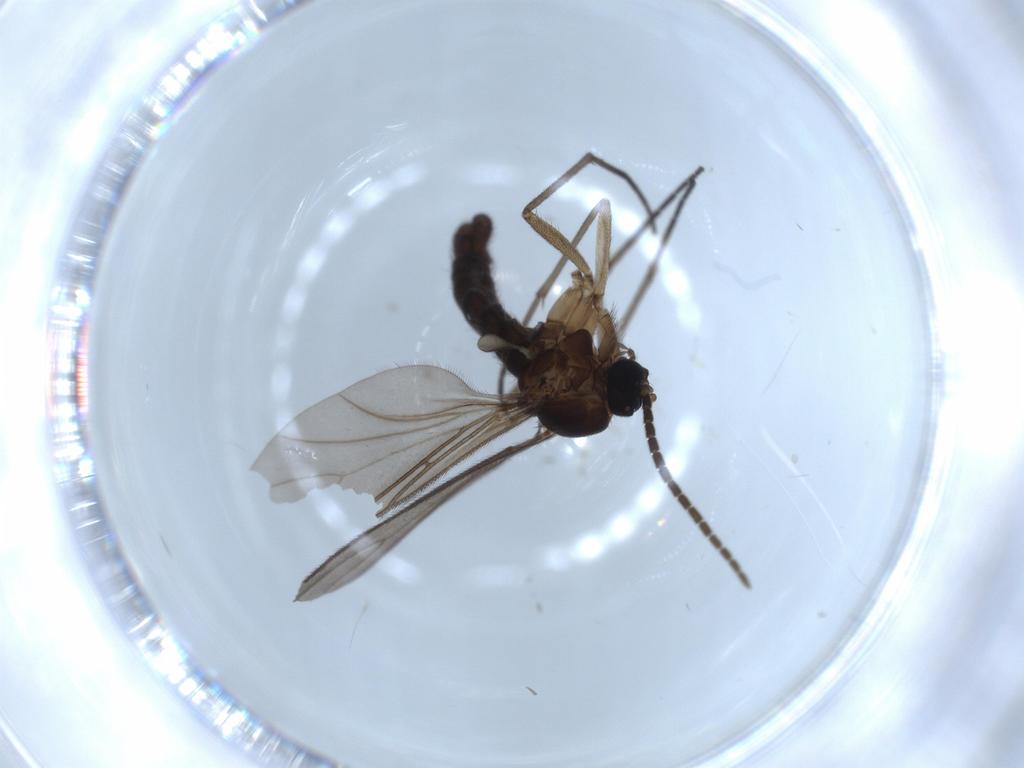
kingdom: Animalia
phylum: Arthropoda
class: Insecta
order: Diptera
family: Sciaridae
